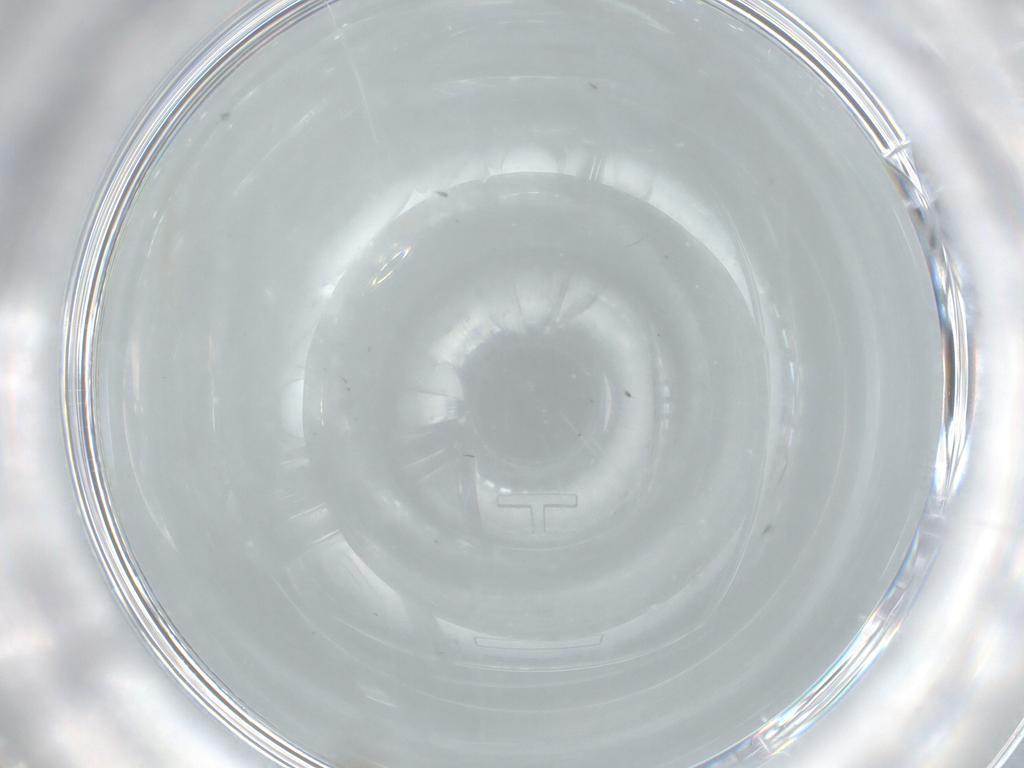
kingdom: Animalia
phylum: Arthropoda
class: Insecta
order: Diptera
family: Cecidomyiidae
